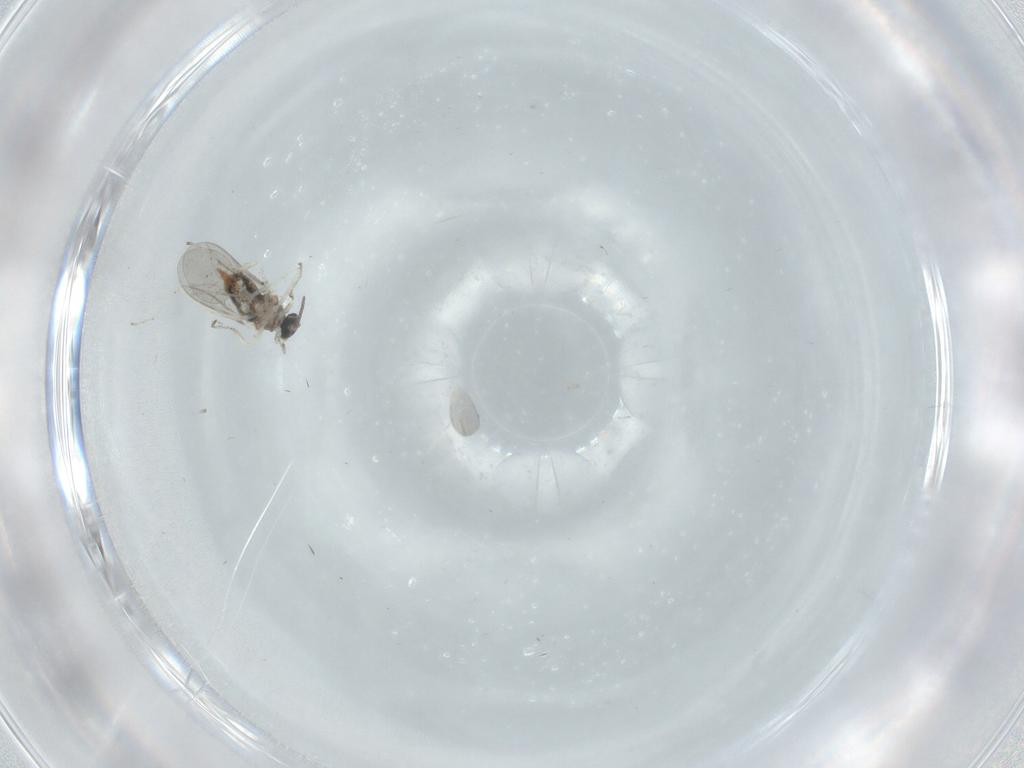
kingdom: Animalia
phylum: Arthropoda
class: Insecta
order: Diptera
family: Cecidomyiidae
